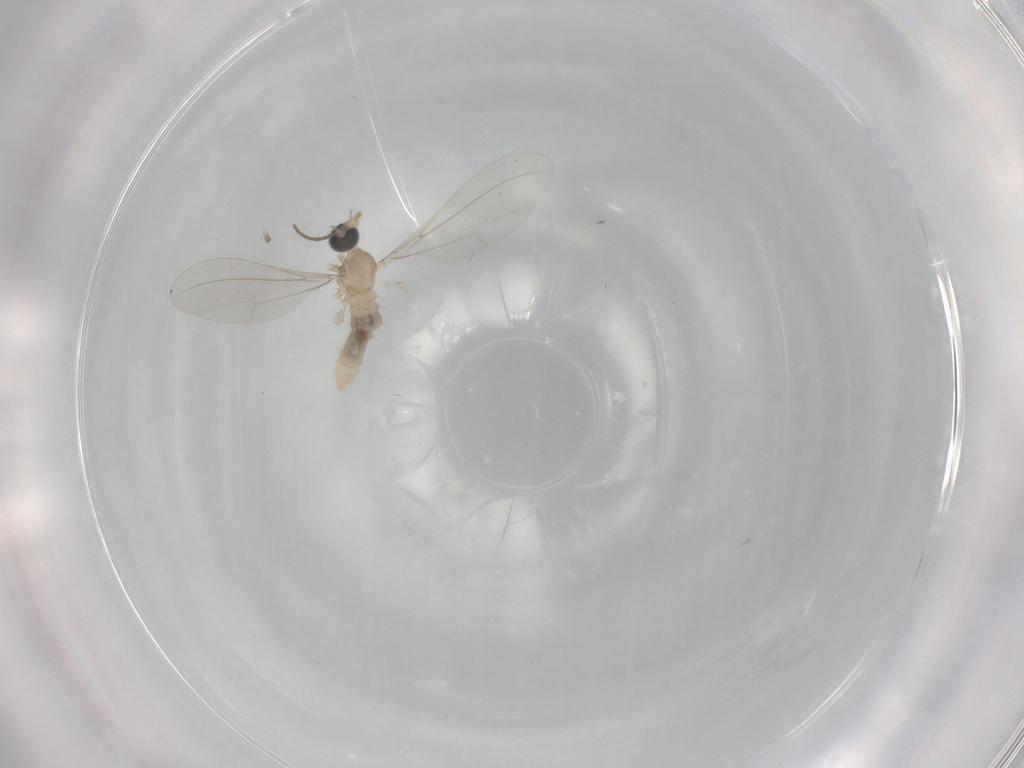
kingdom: Animalia
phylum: Arthropoda
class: Insecta
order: Diptera
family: Cecidomyiidae
